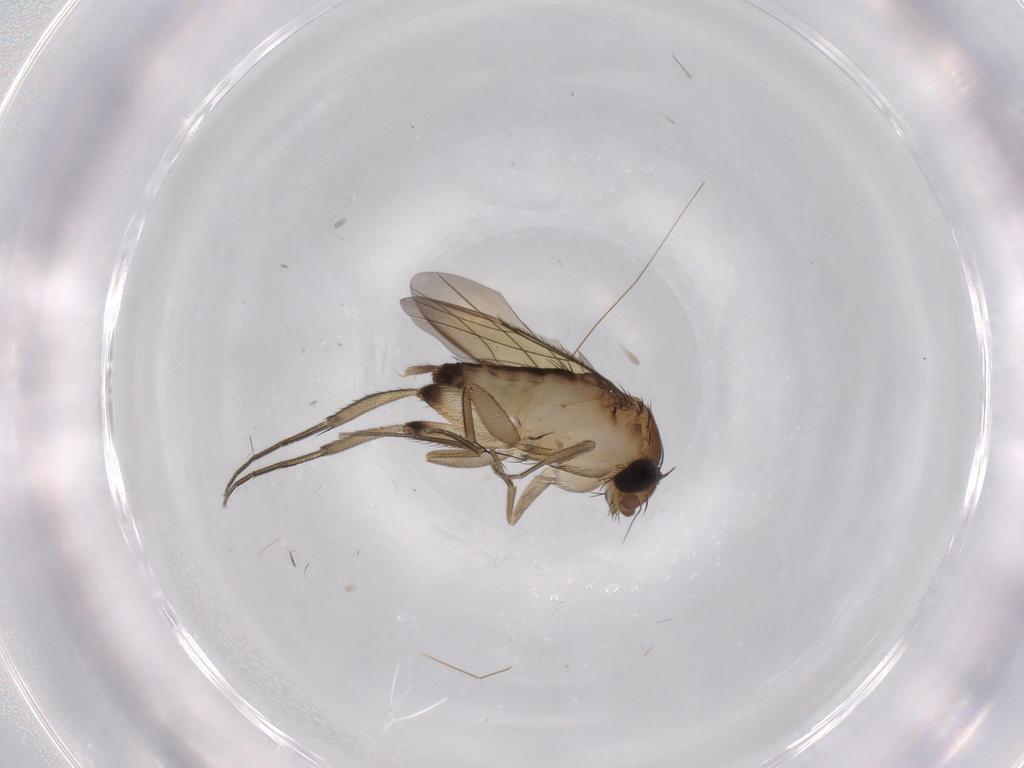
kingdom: Animalia
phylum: Arthropoda
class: Insecta
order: Diptera
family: Phoridae
